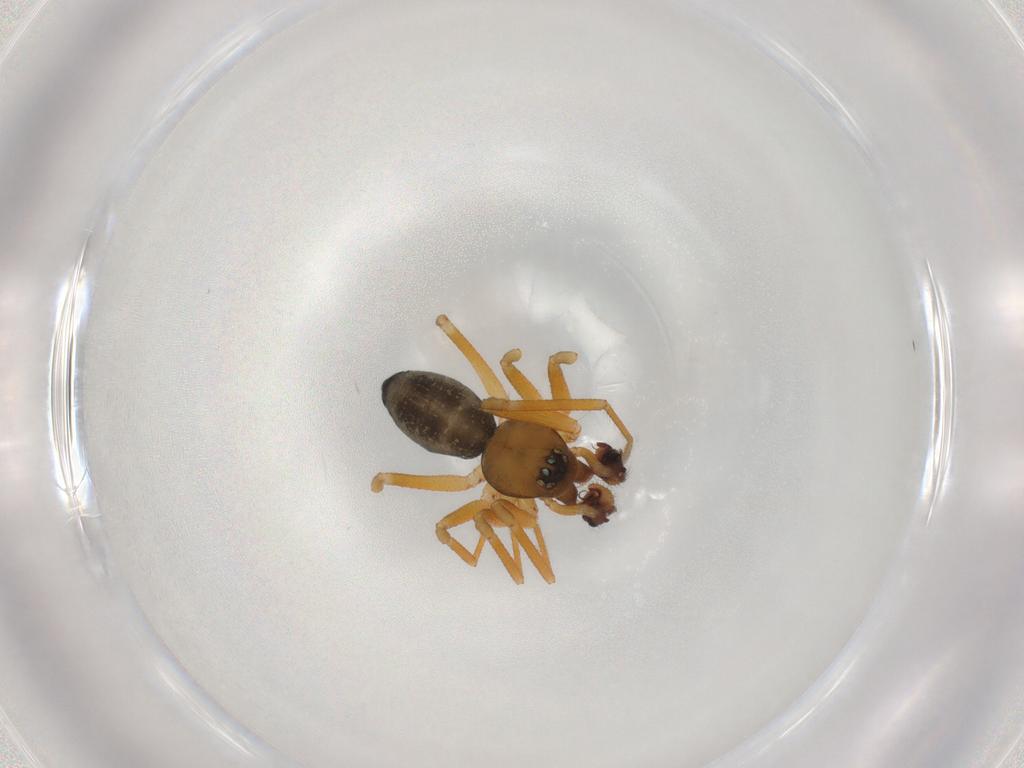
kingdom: Animalia
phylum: Arthropoda
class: Arachnida
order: Araneae
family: Linyphiidae
